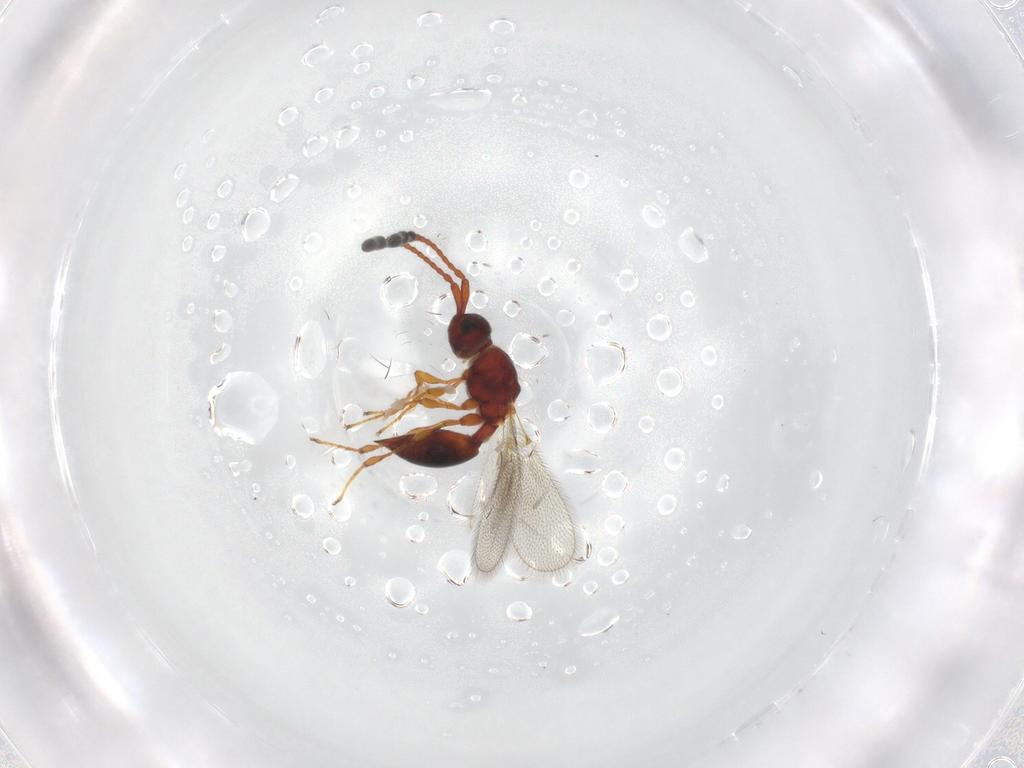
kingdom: Animalia
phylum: Arthropoda
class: Insecta
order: Hymenoptera
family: Diapriidae
